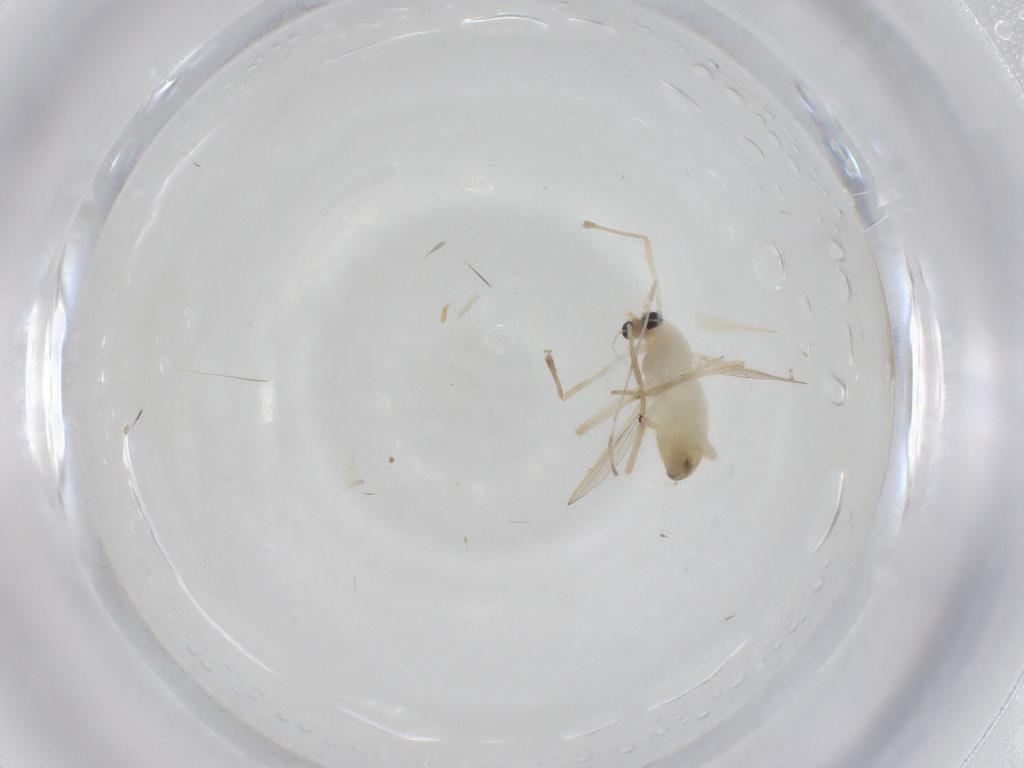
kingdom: Animalia
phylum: Arthropoda
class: Insecta
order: Diptera
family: Chironomidae
